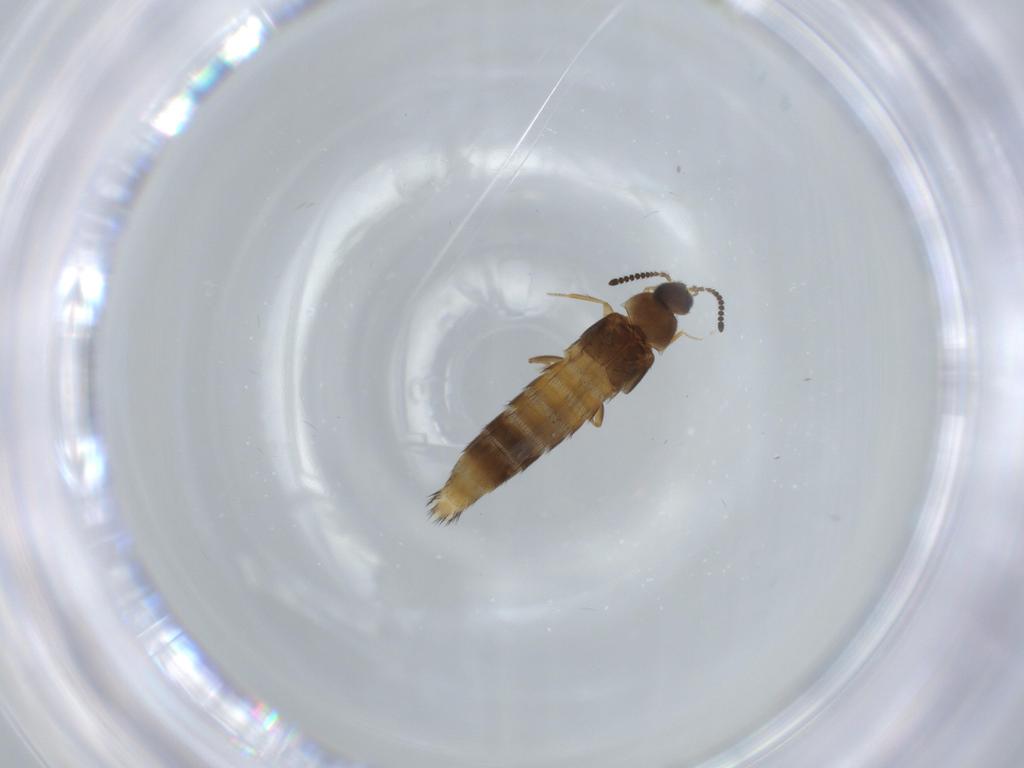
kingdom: Animalia
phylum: Arthropoda
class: Insecta
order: Coleoptera
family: Staphylinidae
